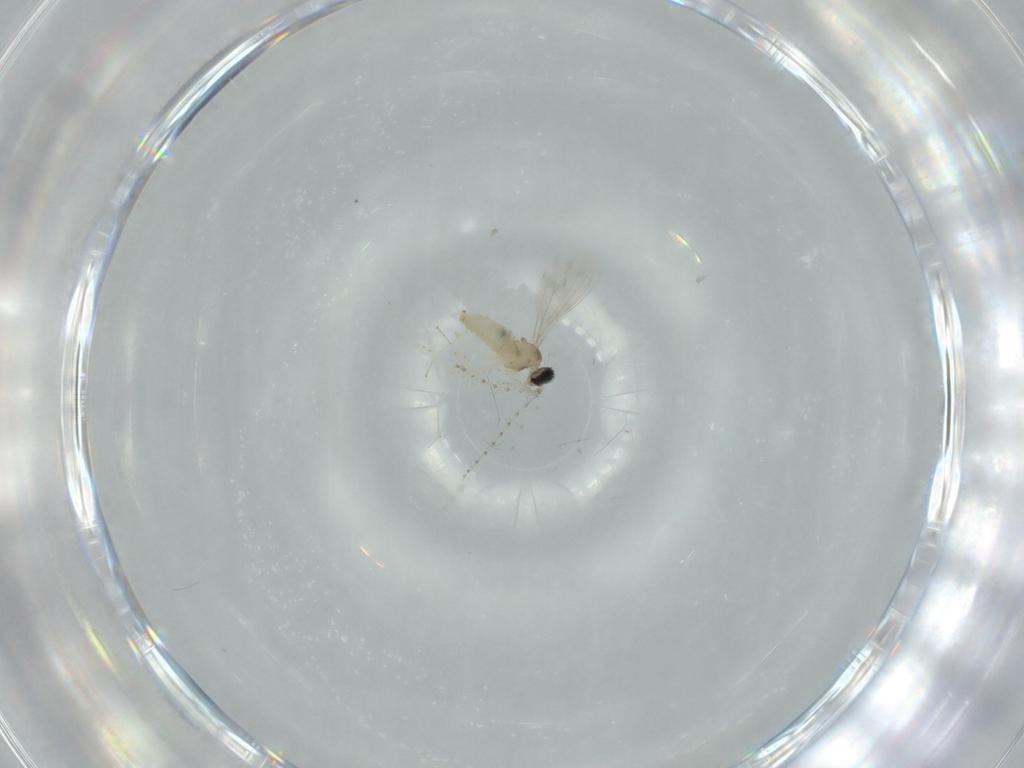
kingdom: Animalia
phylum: Arthropoda
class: Insecta
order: Diptera
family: Cecidomyiidae
